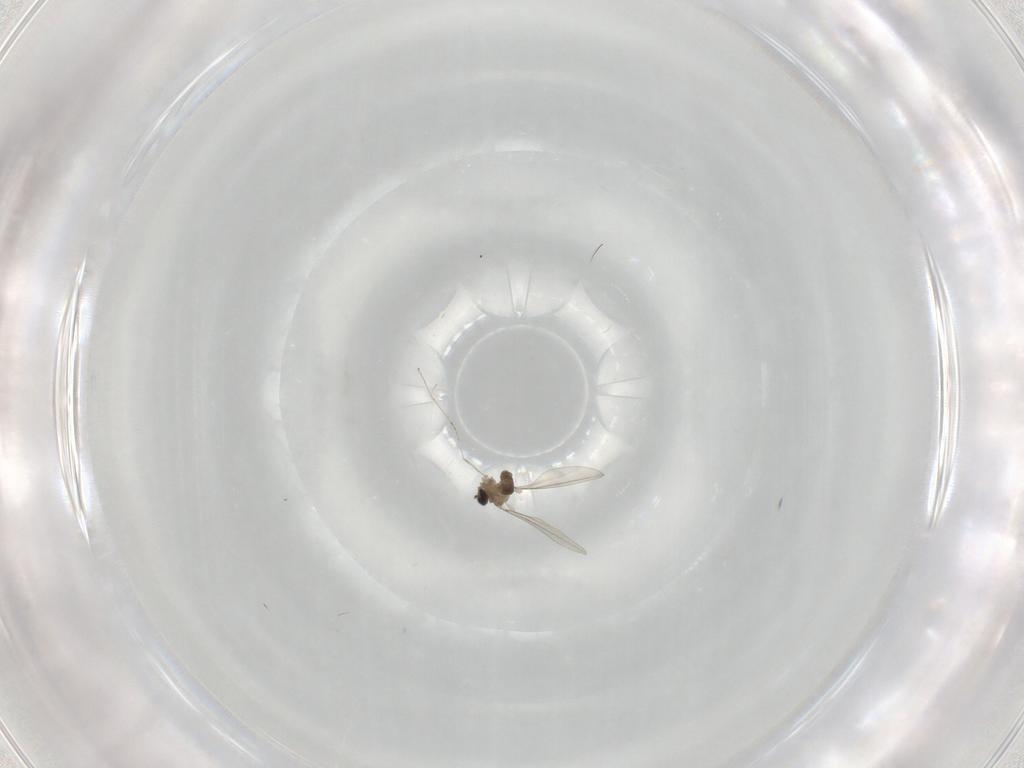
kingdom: Animalia
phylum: Arthropoda
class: Insecta
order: Diptera
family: Cecidomyiidae
